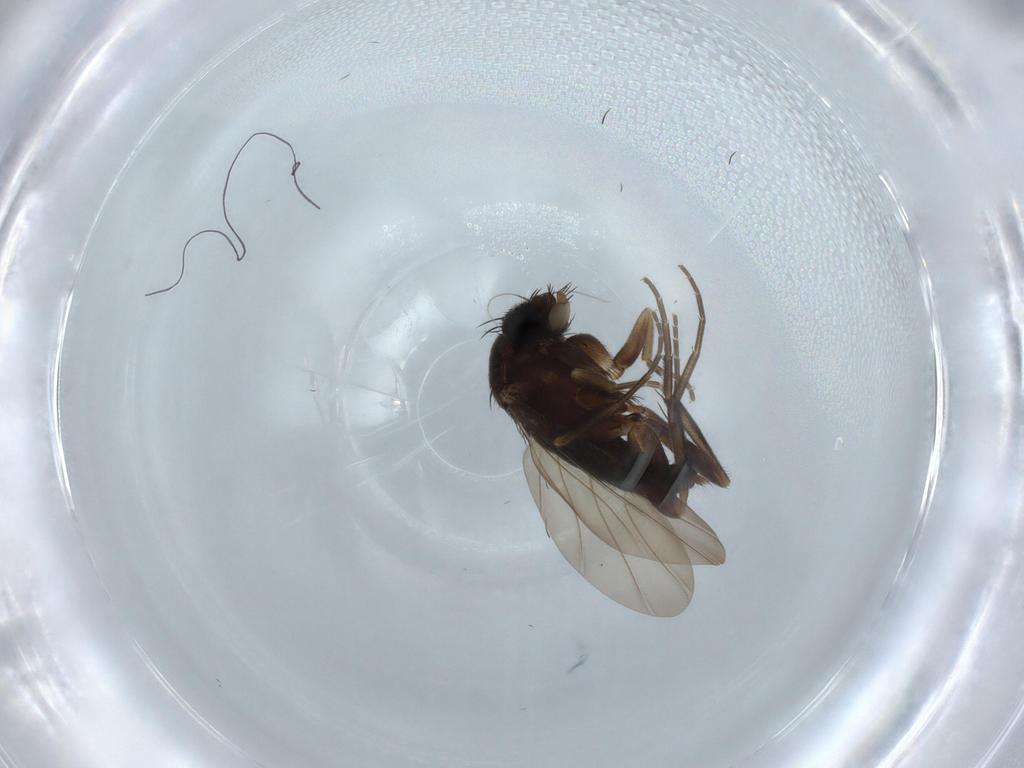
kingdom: Animalia
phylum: Arthropoda
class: Insecta
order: Diptera
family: Phoridae
